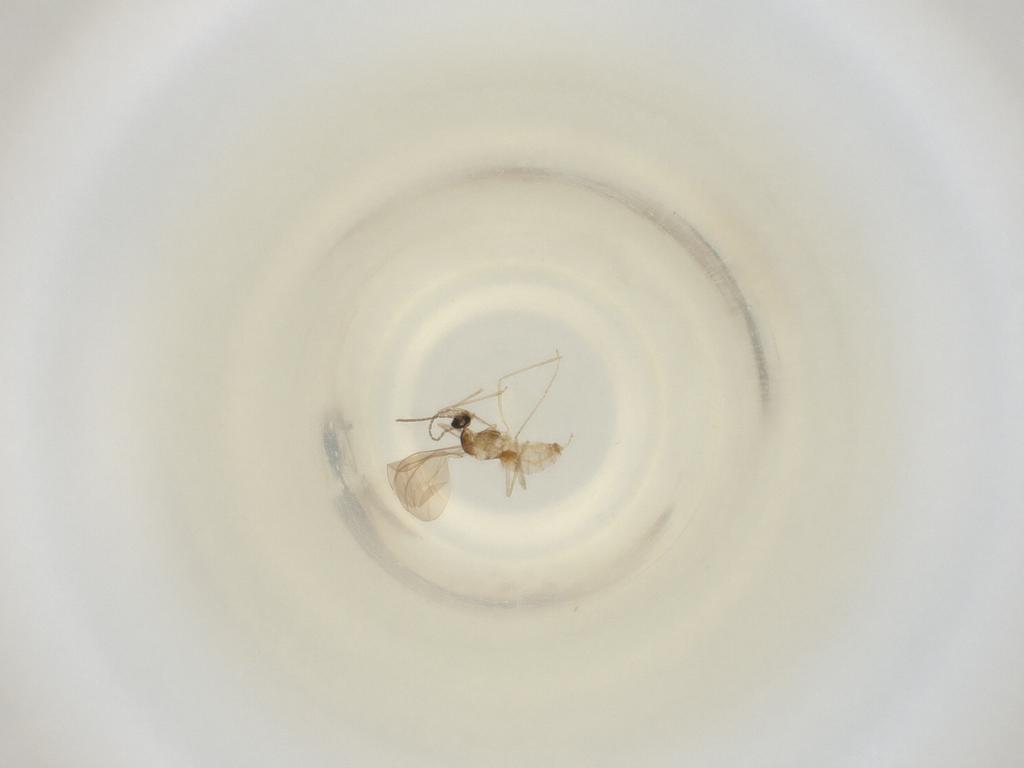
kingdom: Animalia
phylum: Arthropoda
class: Insecta
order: Diptera
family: Cecidomyiidae
